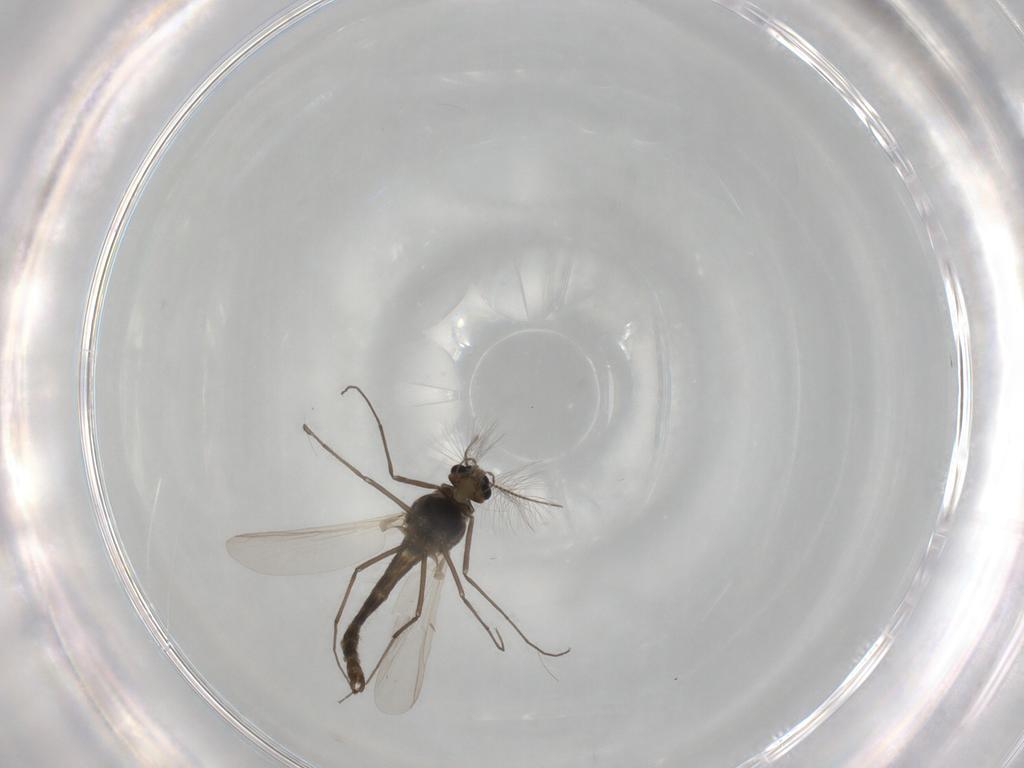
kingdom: Animalia
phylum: Arthropoda
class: Insecta
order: Diptera
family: Chironomidae
